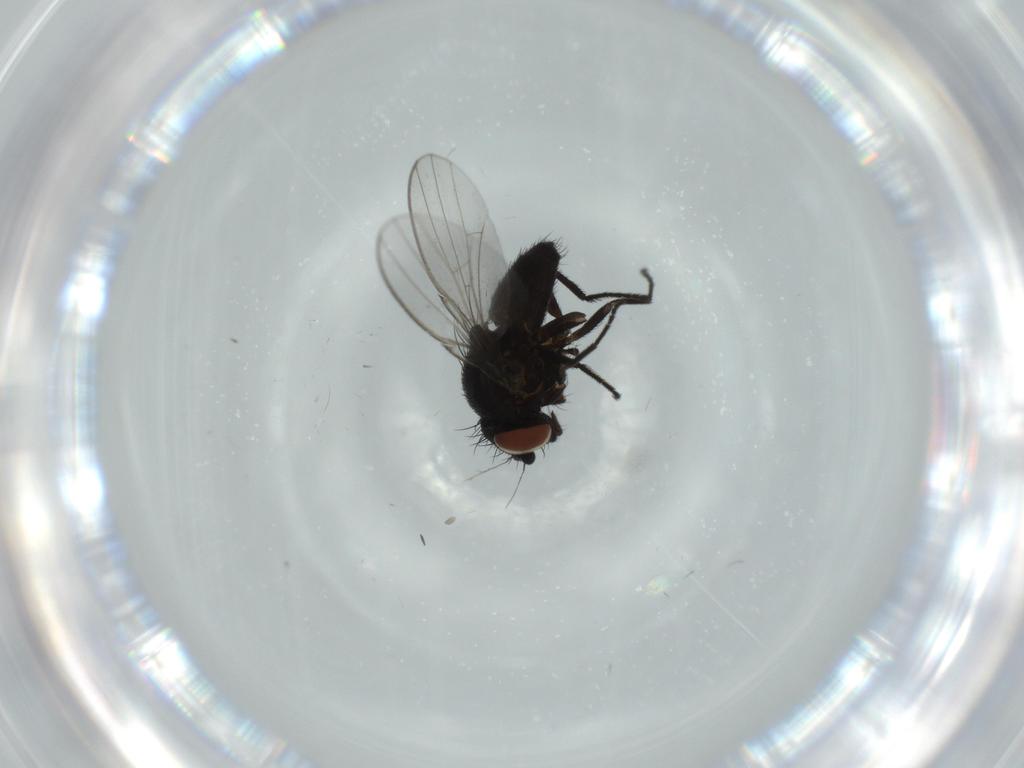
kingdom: Animalia
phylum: Arthropoda
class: Insecta
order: Diptera
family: Milichiidae
